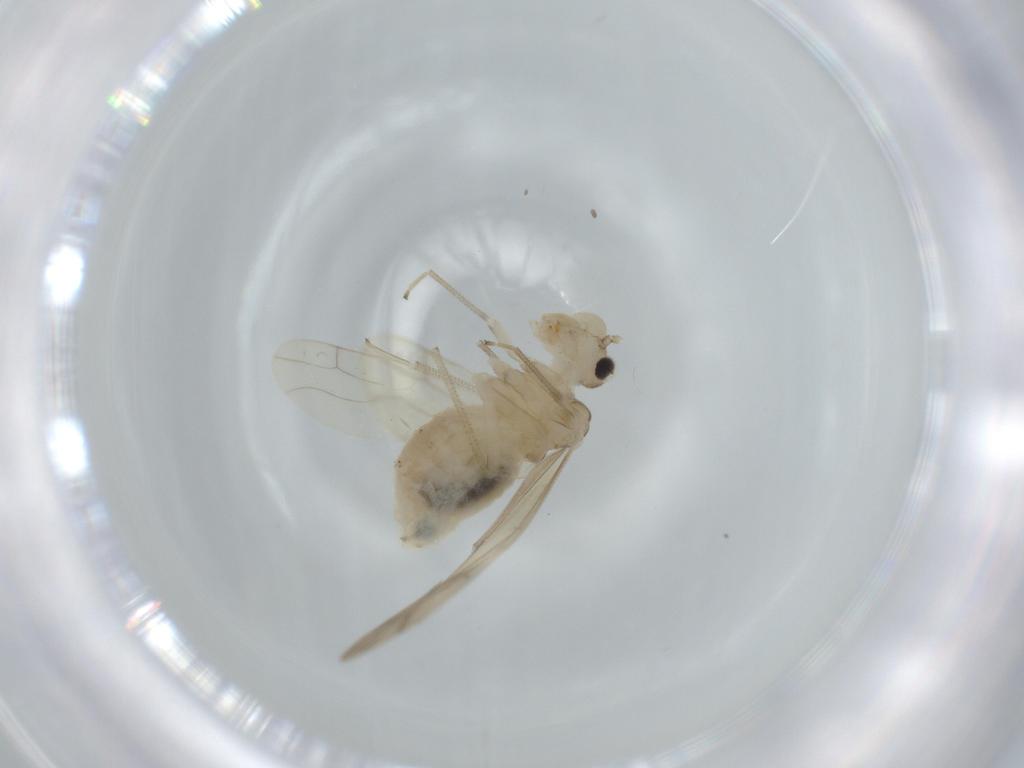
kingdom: Animalia
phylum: Arthropoda
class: Insecta
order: Psocodea
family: Caeciliusidae
